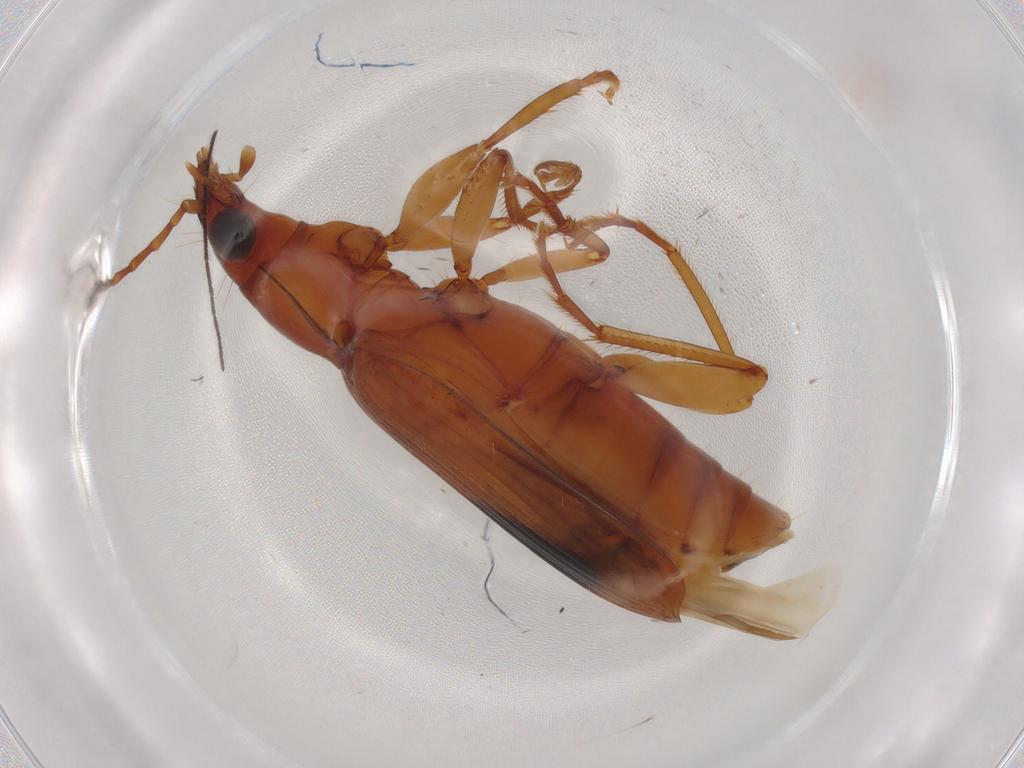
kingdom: Animalia
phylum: Arthropoda
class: Insecta
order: Coleoptera
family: Carabidae
